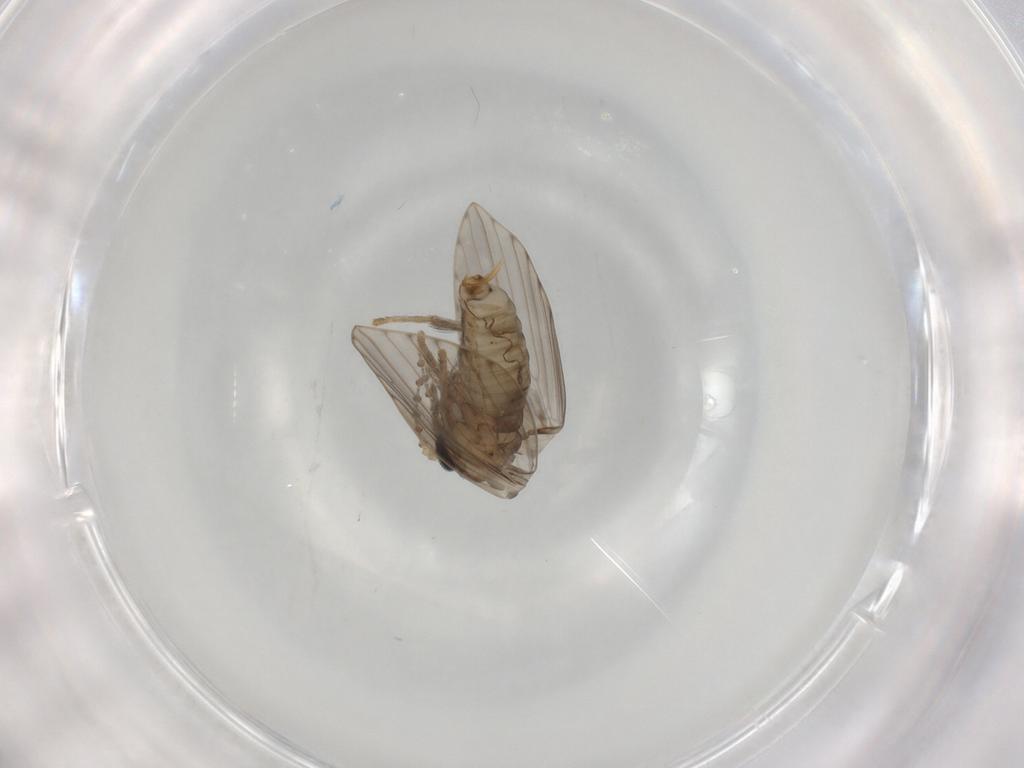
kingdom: Animalia
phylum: Arthropoda
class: Insecta
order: Diptera
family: Psychodidae
